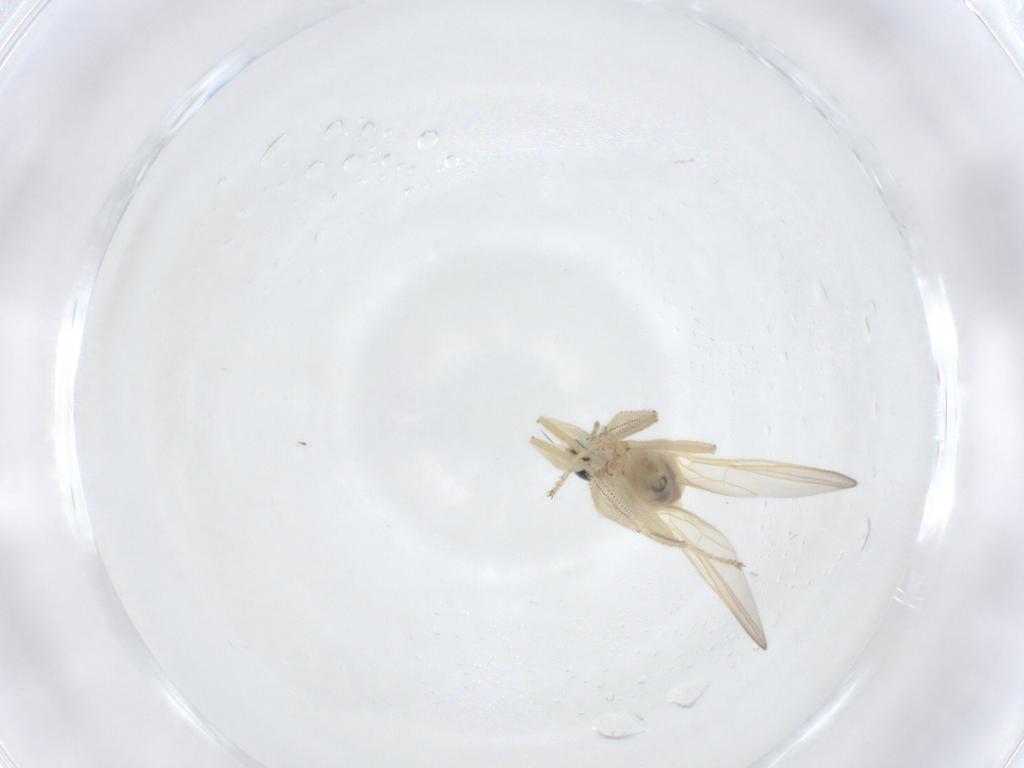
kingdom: Animalia
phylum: Arthropoda
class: Insecta
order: Diptera
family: Hybotidae
